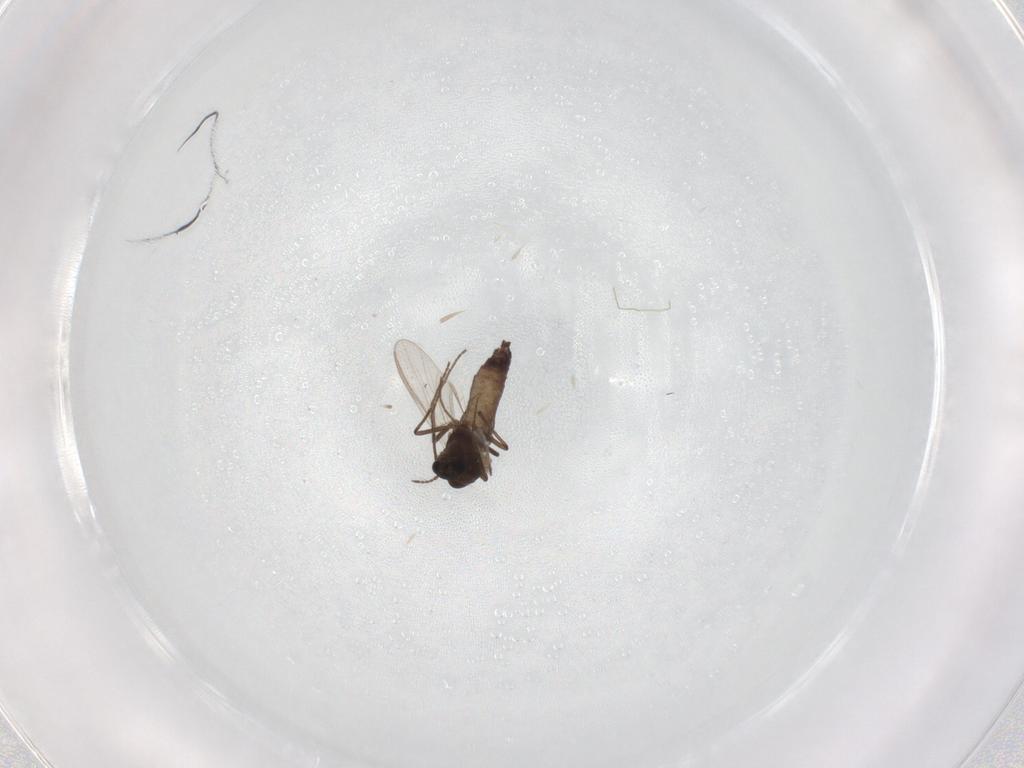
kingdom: Animalia
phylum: Arthropoda
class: Insecta
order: Diptera
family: Chironomidae
